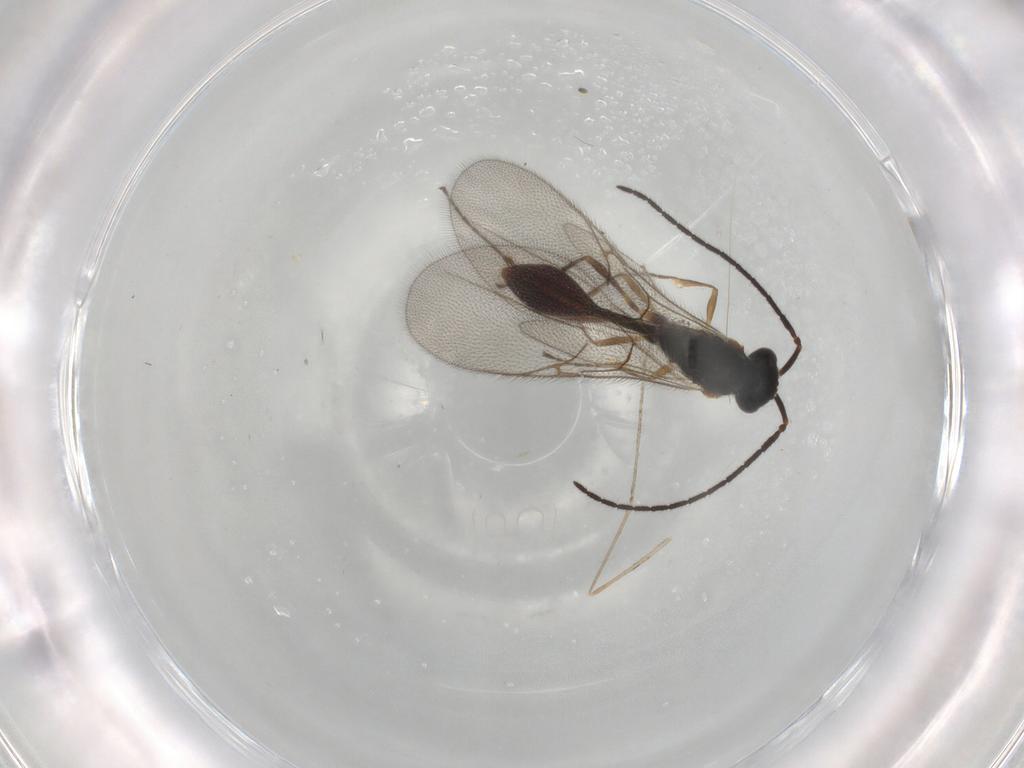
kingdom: Animalia
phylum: Arthropoda
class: Insecta
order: Hymenoptera
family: Diapriidae
